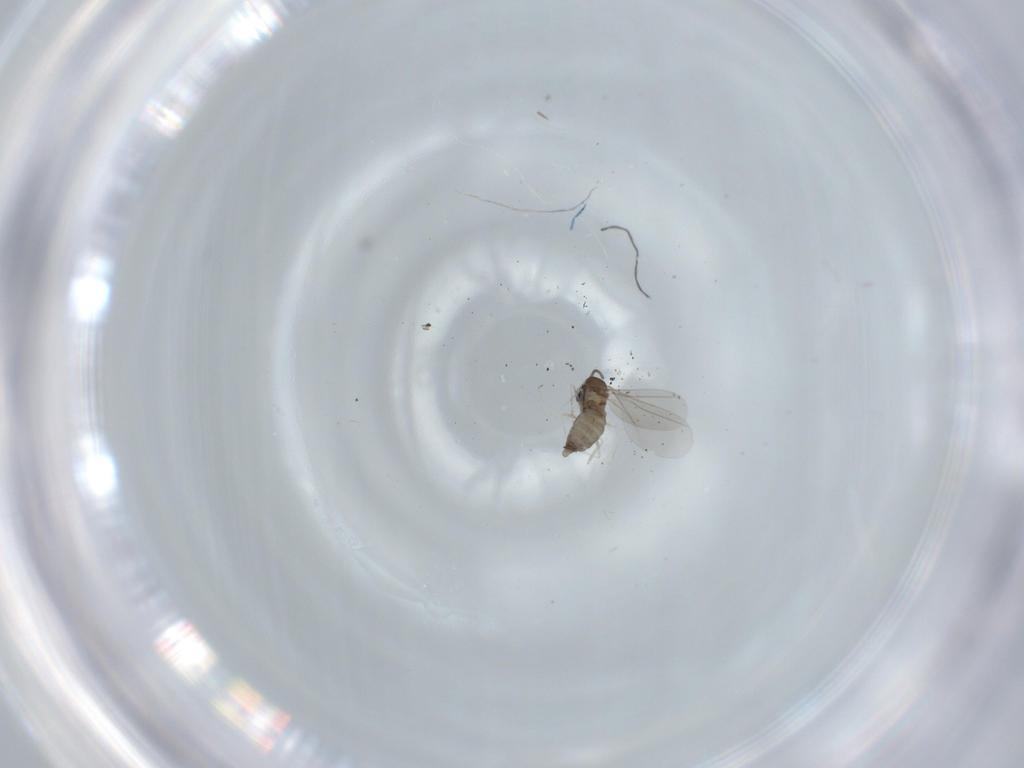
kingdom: Animalia
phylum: Arthropoda
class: Insecta
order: Diptera
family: Cecidomyiidae
